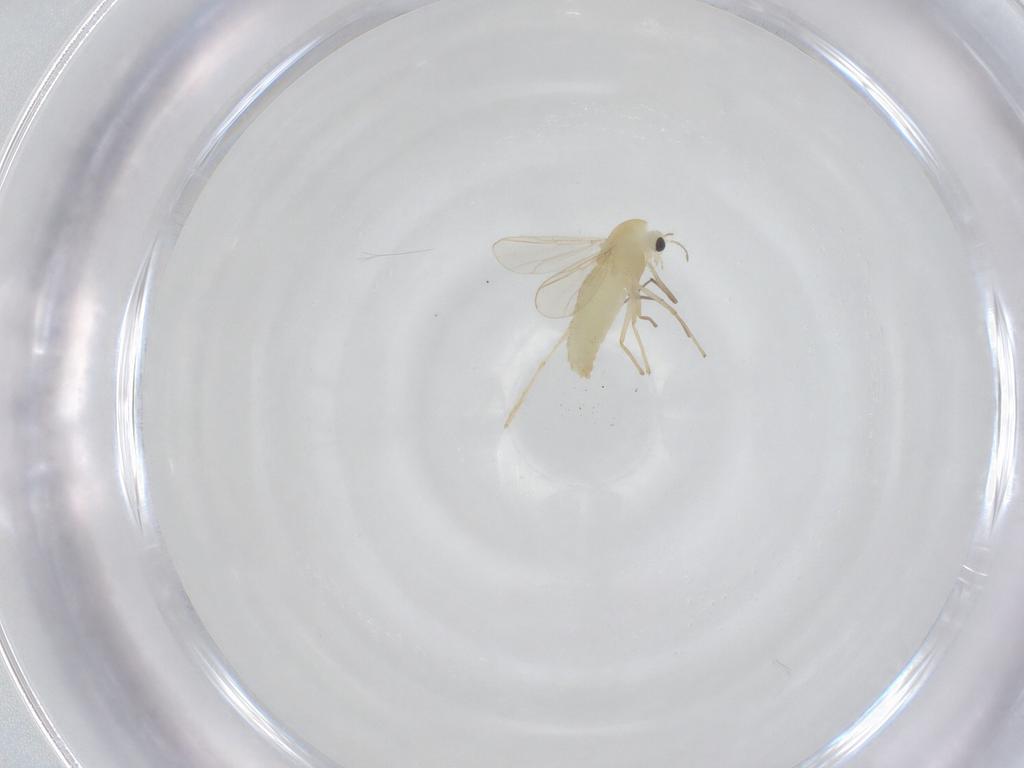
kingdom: Animalia
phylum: Arthropoda
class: Insecta
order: Diptera
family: Chironomidae
